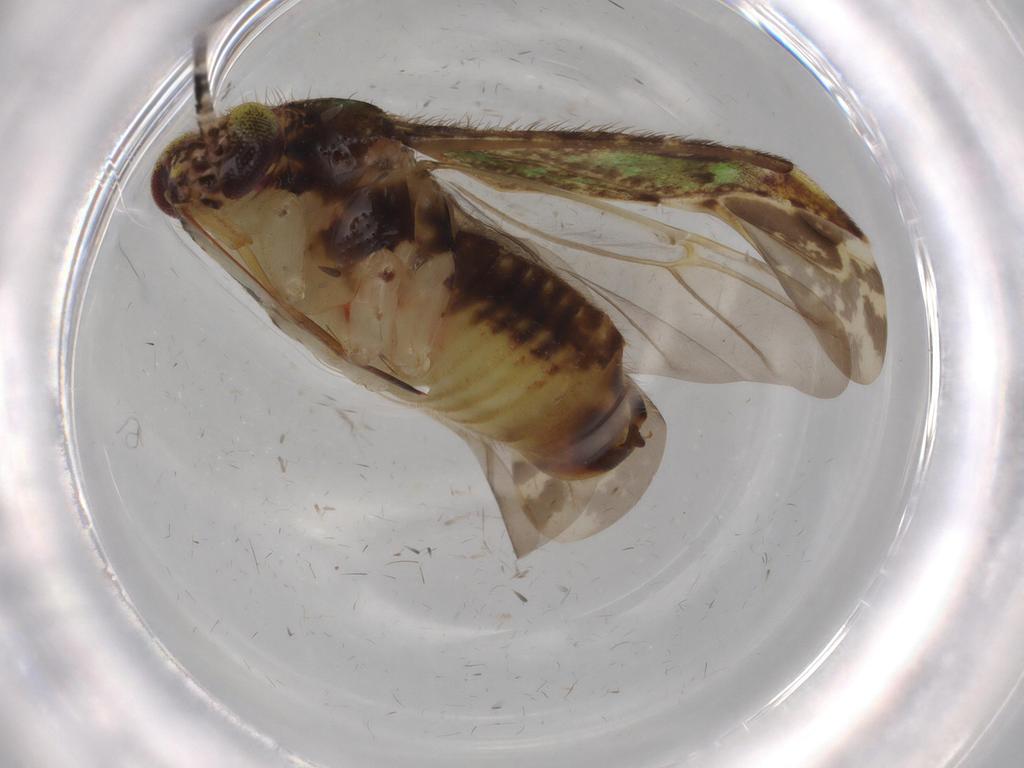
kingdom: Animalia
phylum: Arthropoda
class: Insecta
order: Hemiptera
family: Miridae
